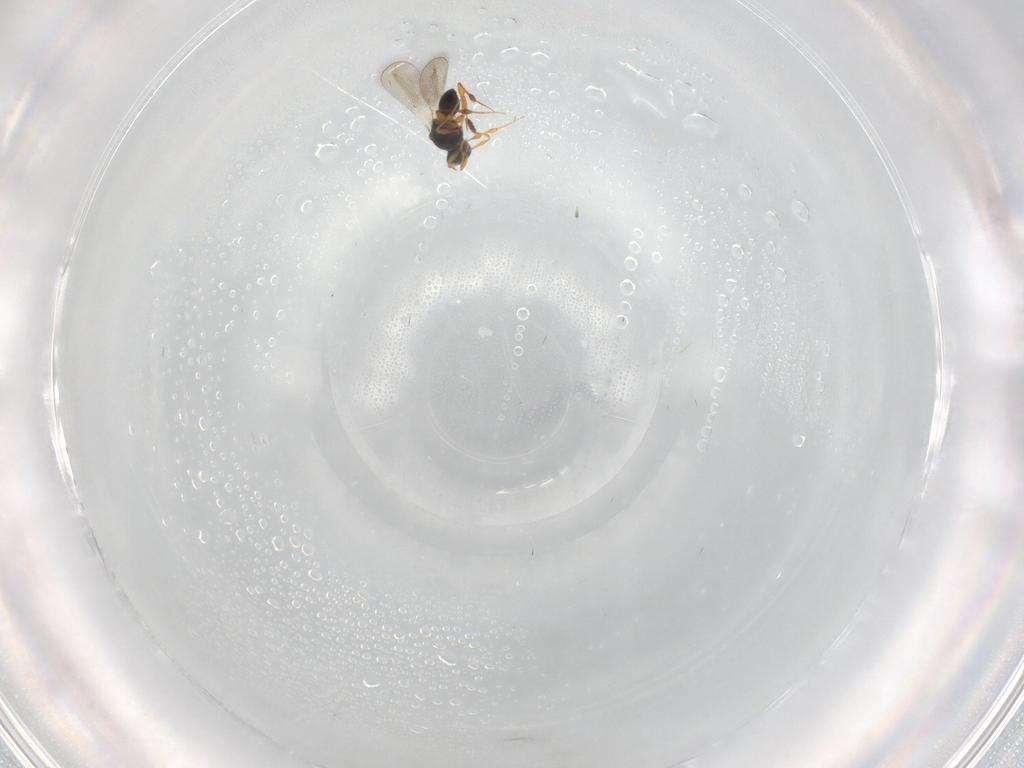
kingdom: Animalia
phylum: Arthropoda
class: Insecta
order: Hymenoptera
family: Platygastridae
